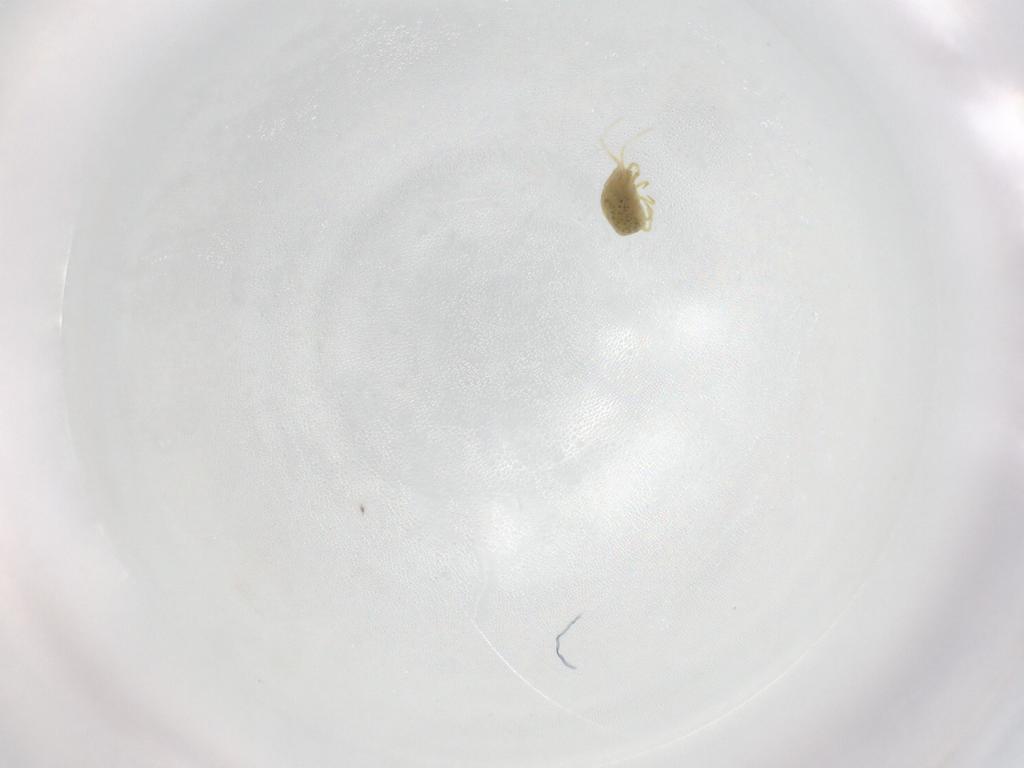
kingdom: Animalia
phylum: Arthropoda
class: Arachnida
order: Trombidiformes
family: Tetranychidae
